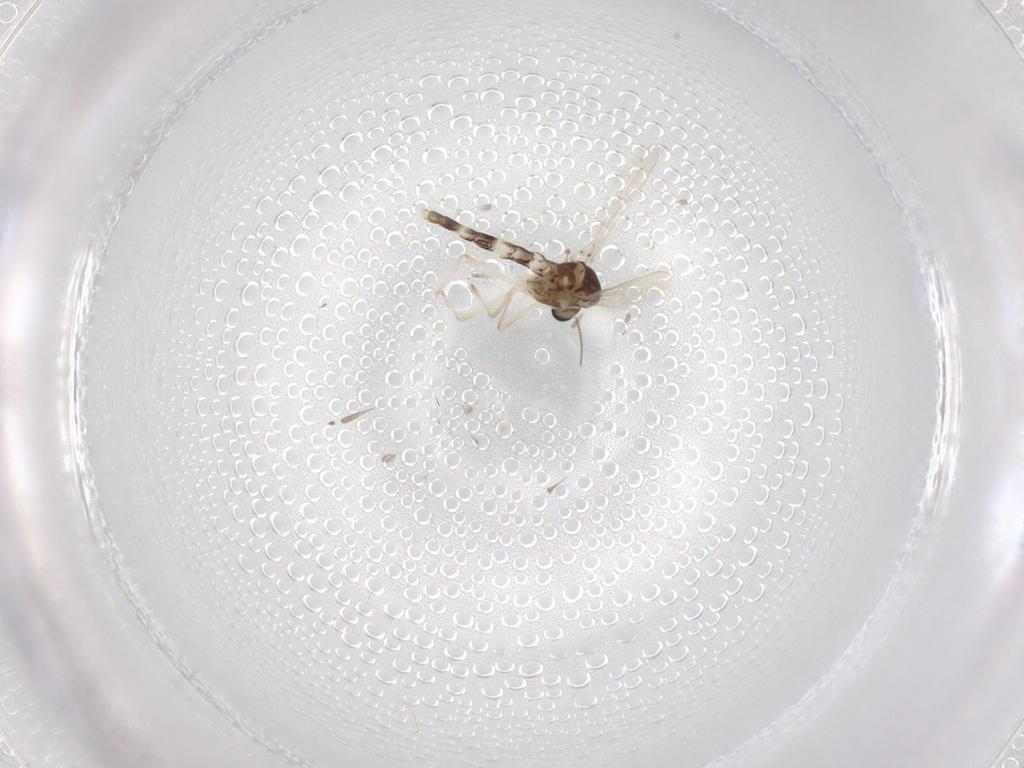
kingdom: Animalia
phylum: Arthropoda
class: Insecta
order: Diptera
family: Chironomidae
